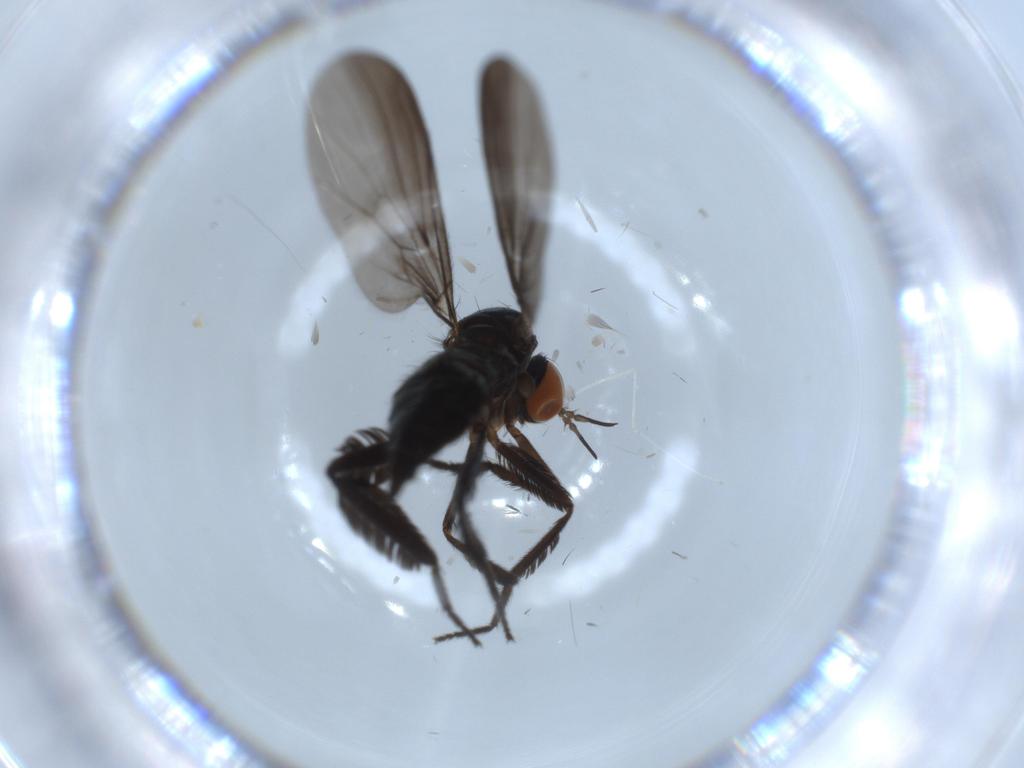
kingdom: Animalia
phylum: Arthropoda
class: Insecta
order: Diptera
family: Empididae
